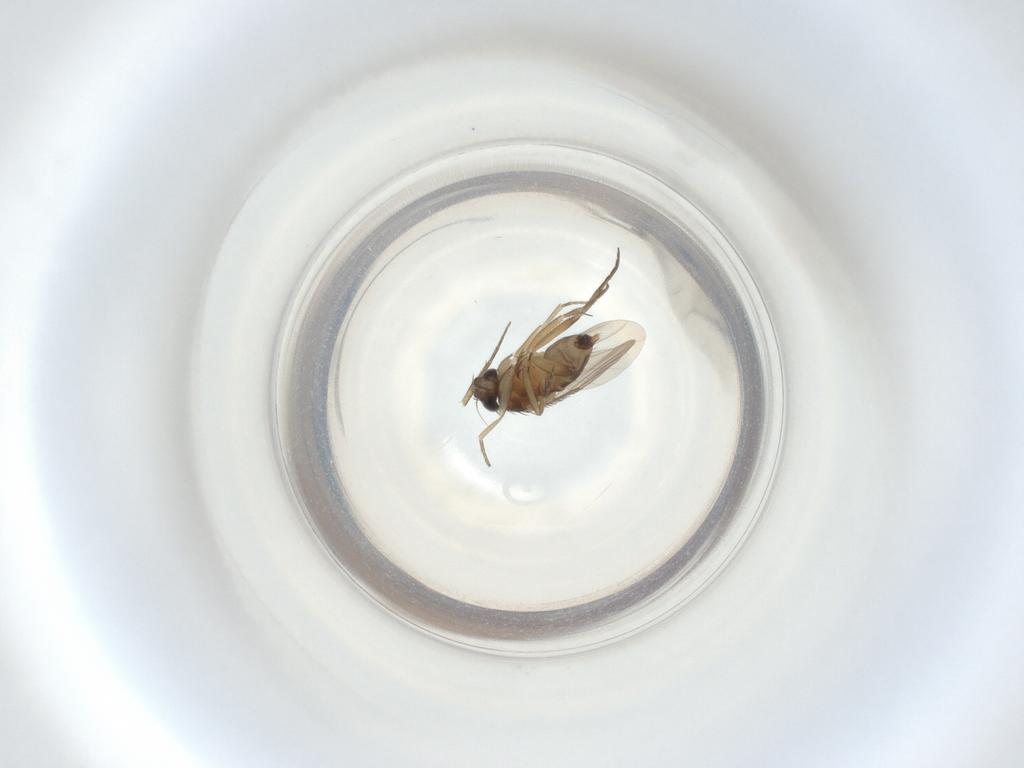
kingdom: Animalia
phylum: Arthropoda
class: Insecta
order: Diptera
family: Phoridae
